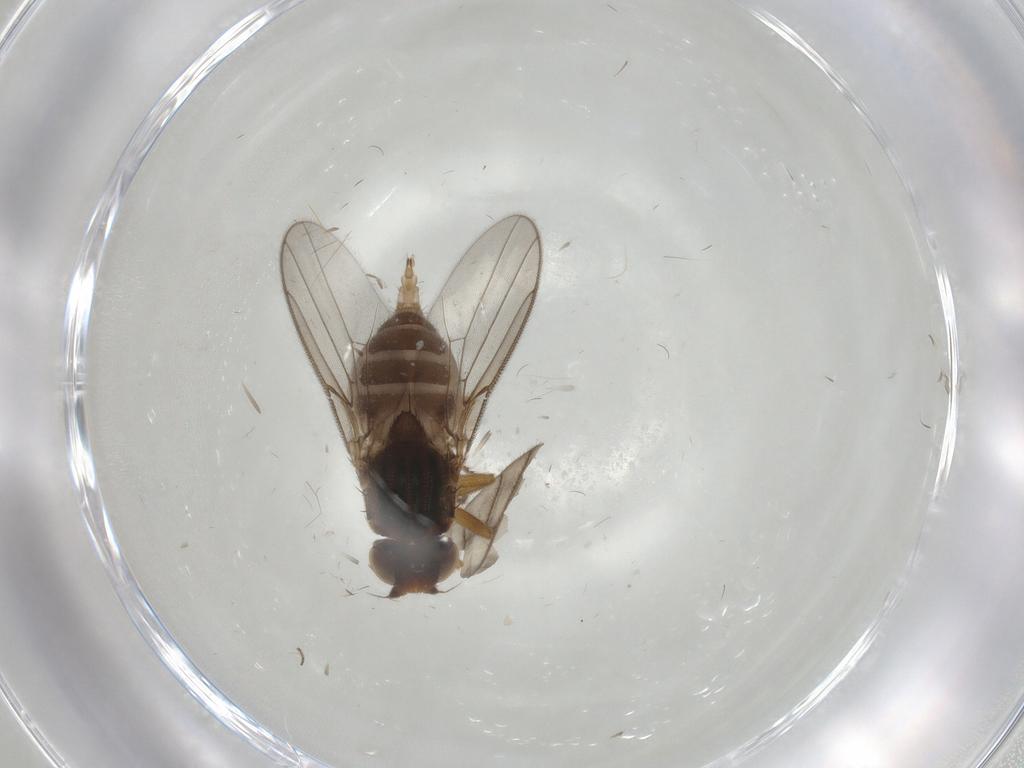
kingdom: Animalia
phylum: Arthropoda
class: Insecta
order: Diptera
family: Chloropidae
